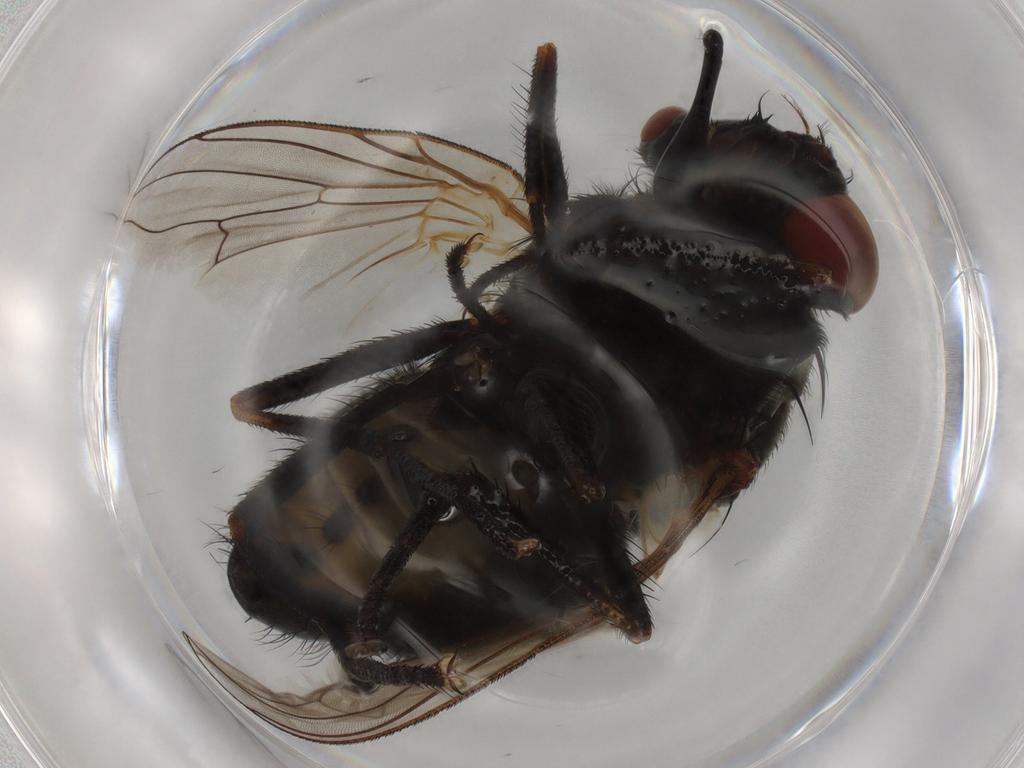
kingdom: Animalia
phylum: Arthropoda
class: Insecta
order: Diptera
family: Muscidae
